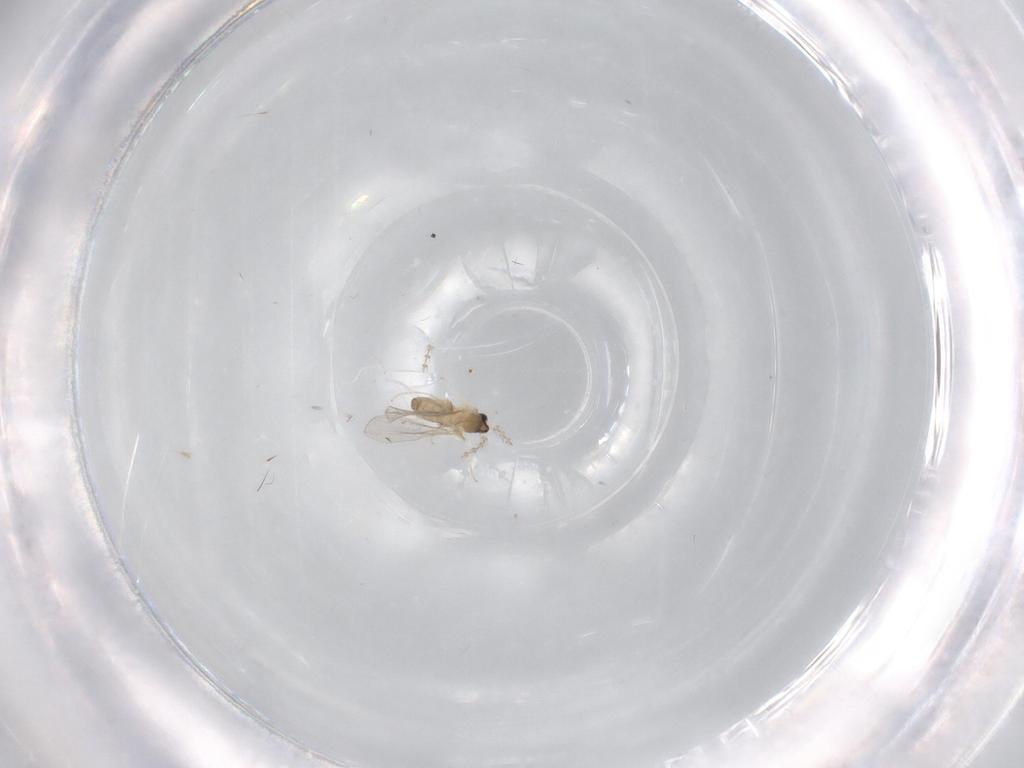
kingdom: Animalia
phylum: Arthropoda
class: Insecta
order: Diptera
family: Cecidomyiidae
